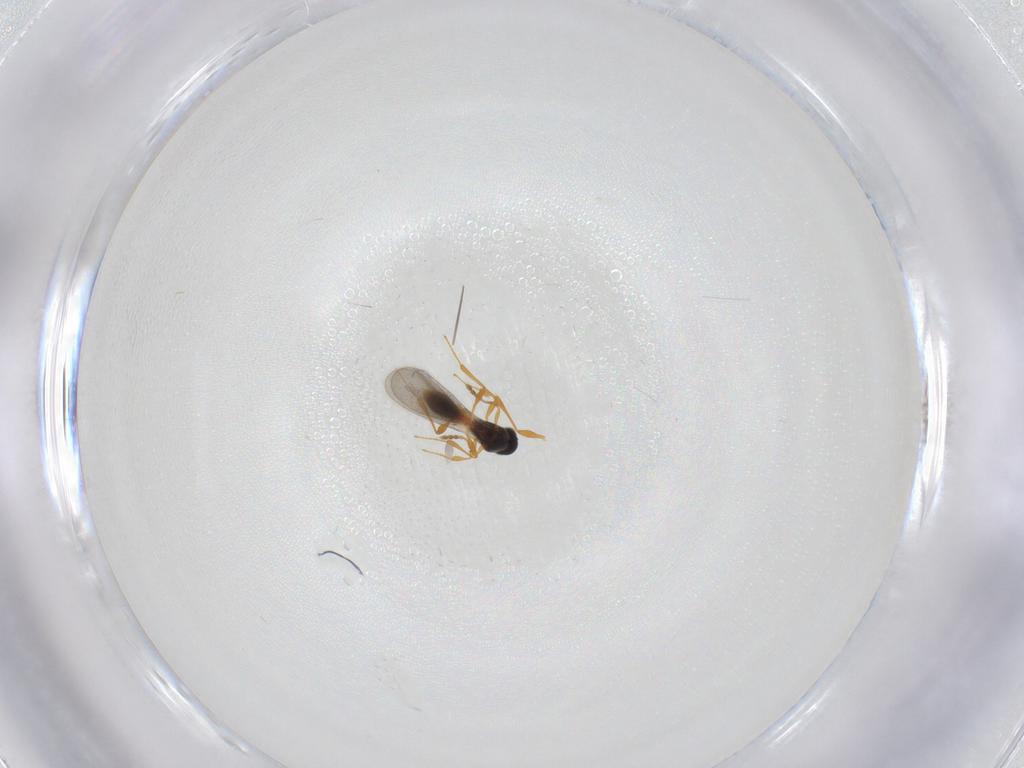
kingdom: Animalia
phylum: Arthropoda
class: Insecta
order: Hymenoptera
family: Platygastridae
